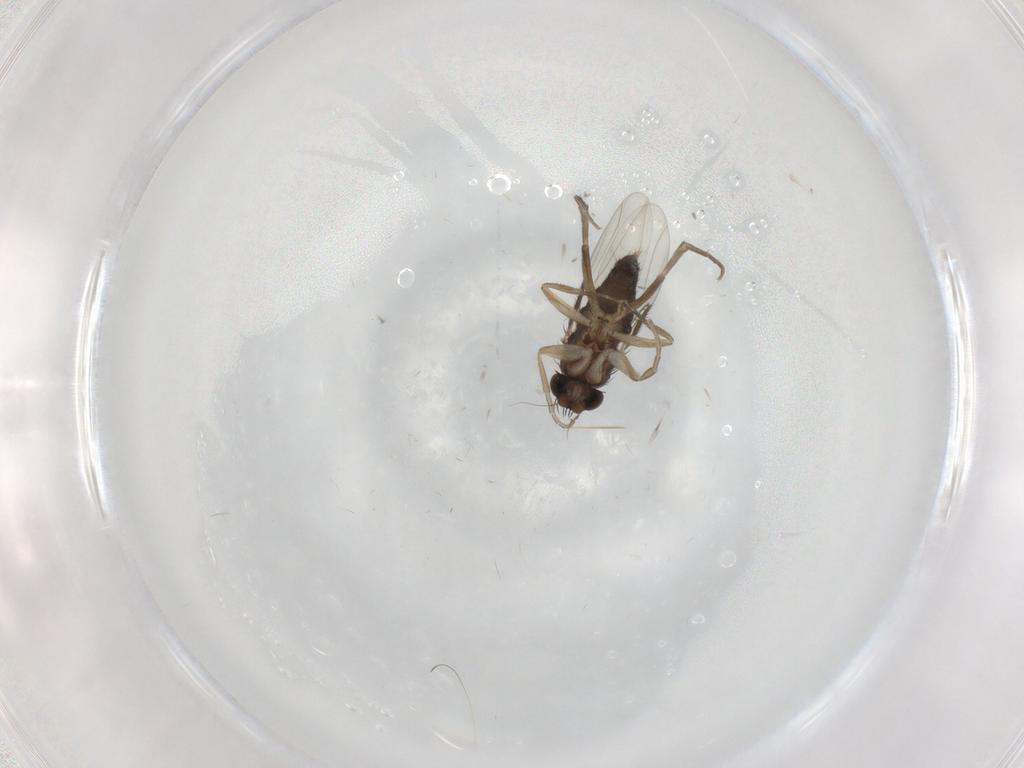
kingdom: Animalia
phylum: Arthropoda
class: Insecta
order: Diptera
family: Phoridae
